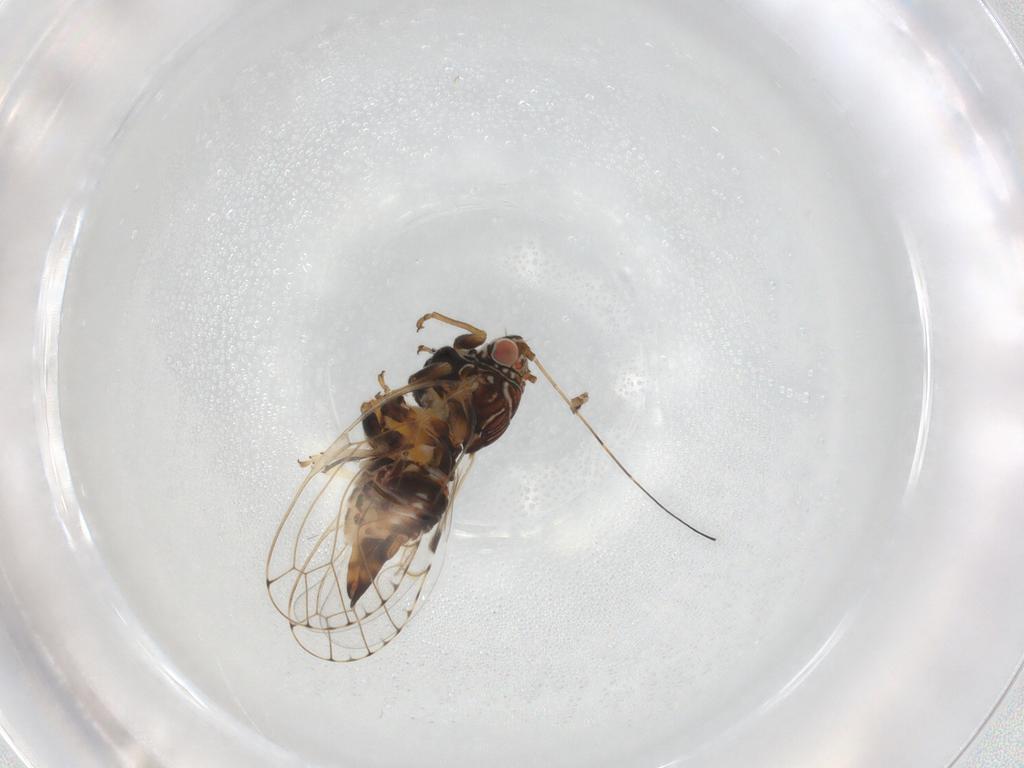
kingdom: Animalia
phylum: Arthropoda
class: Insecta
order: Hemiptera
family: Psylloidea_incertae_sedis
